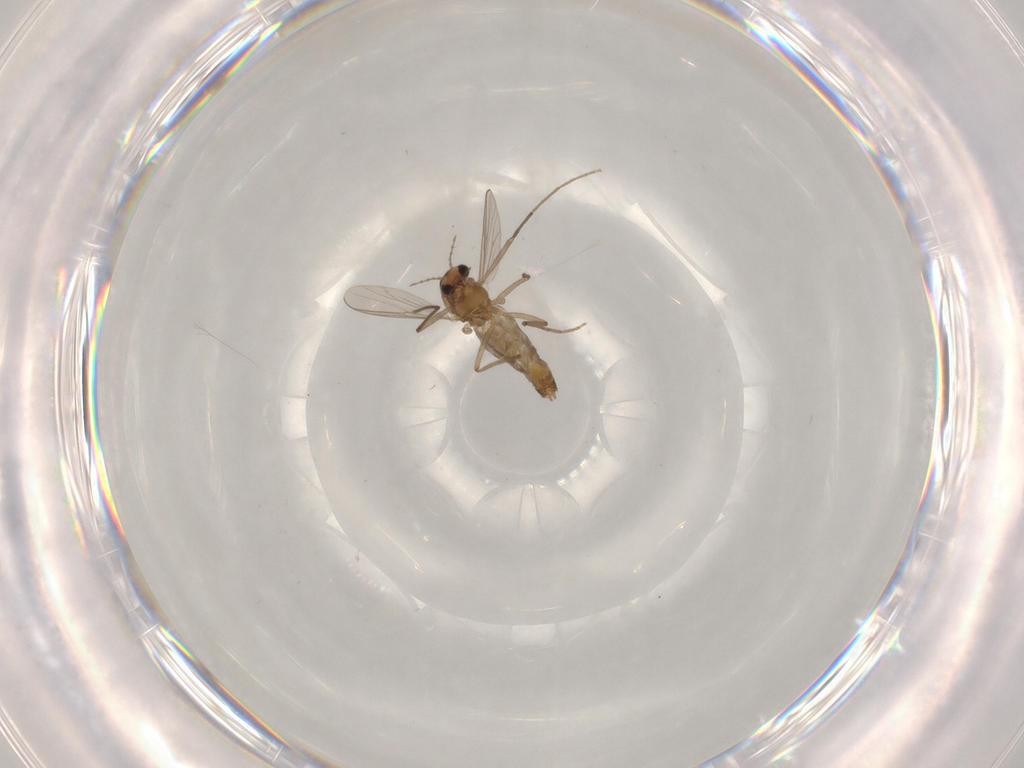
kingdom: Animalia
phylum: Arthropoda
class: Insecta
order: Diptera
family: Chironomidae
